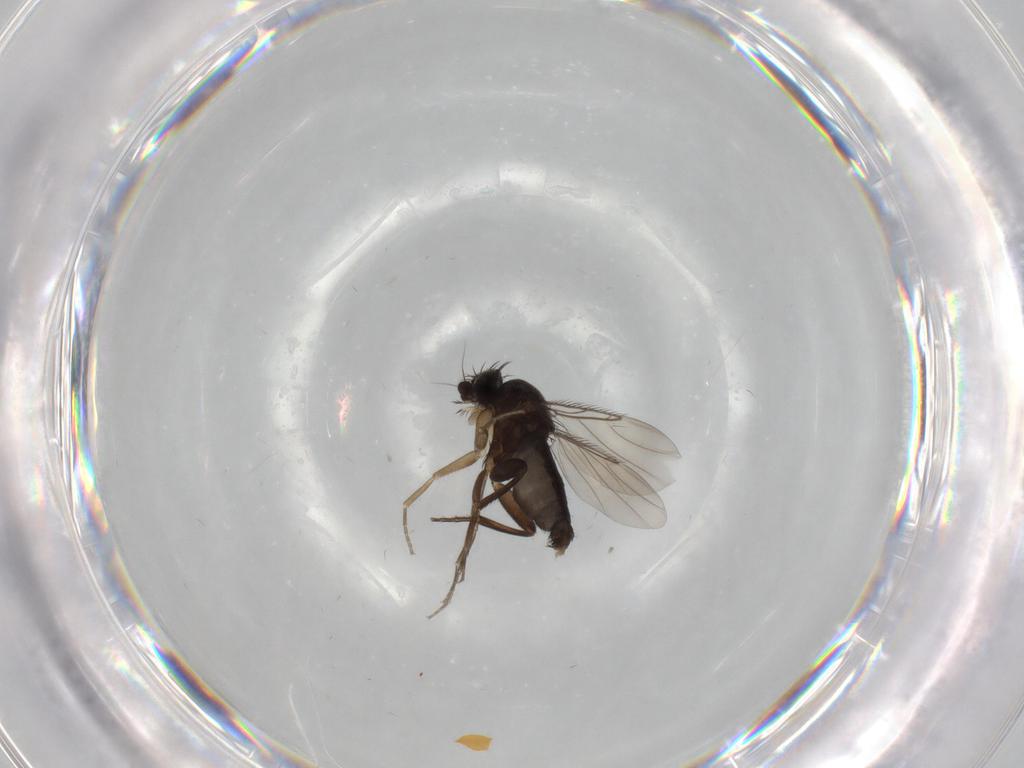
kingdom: Animalia
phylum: Arthropoda
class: Insecta
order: Diptera
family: Phoridae
